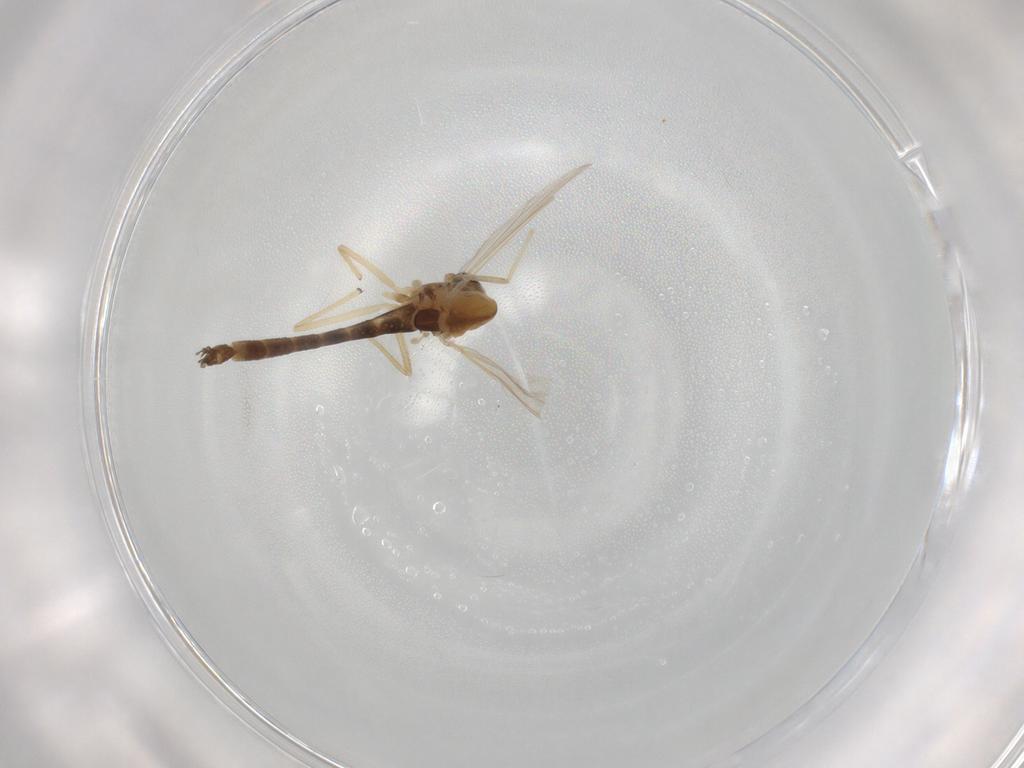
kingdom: Animalia
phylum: Arthropoda
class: Insecta
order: Diptera
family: Chironomidae
